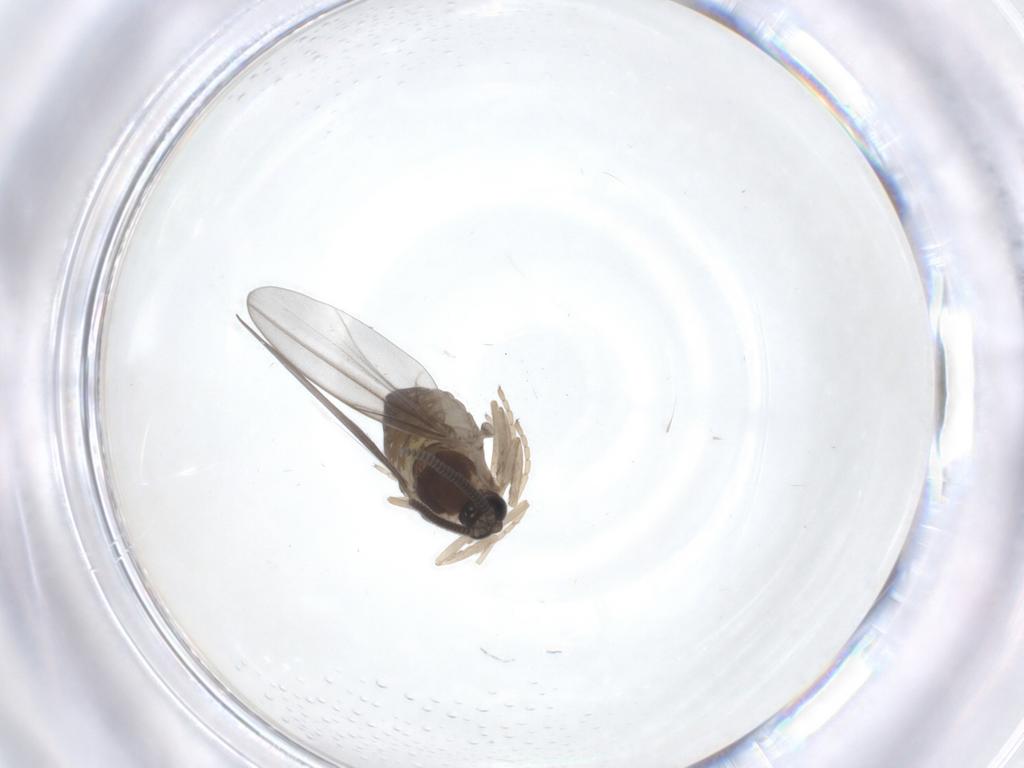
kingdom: Animalia
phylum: Arthropoda
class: Insecta
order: Diptera
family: Cecidomyiidae
